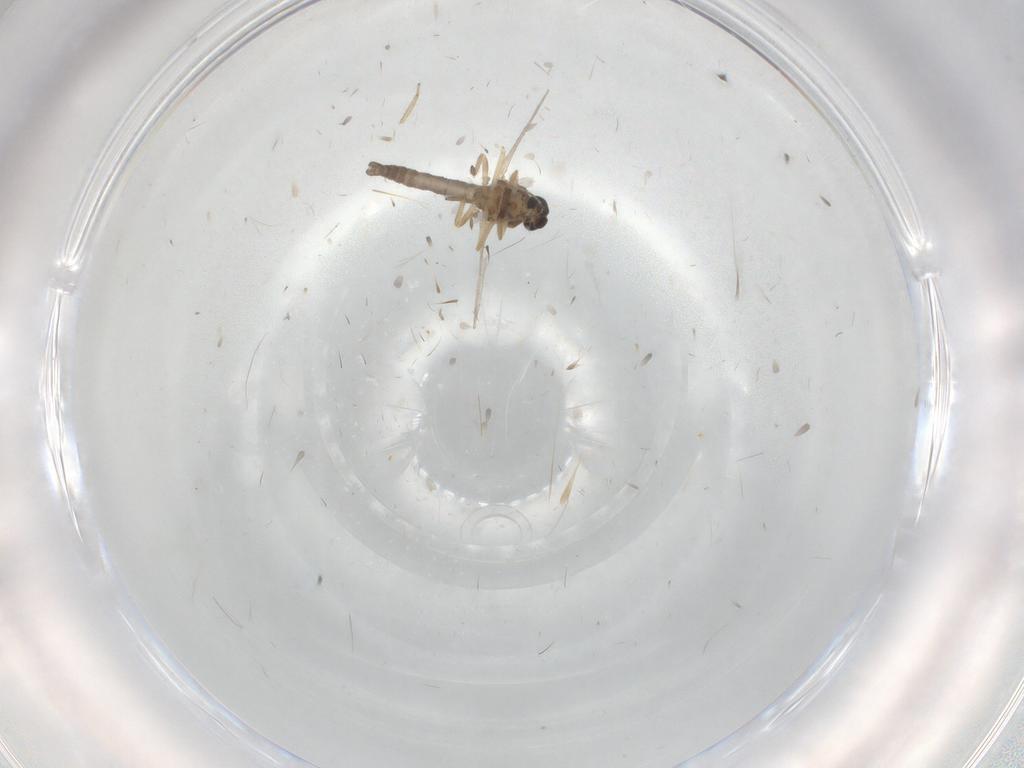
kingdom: Animalia
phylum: Arthropoda
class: Insecta
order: Diptera
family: Ceratopogonidae
